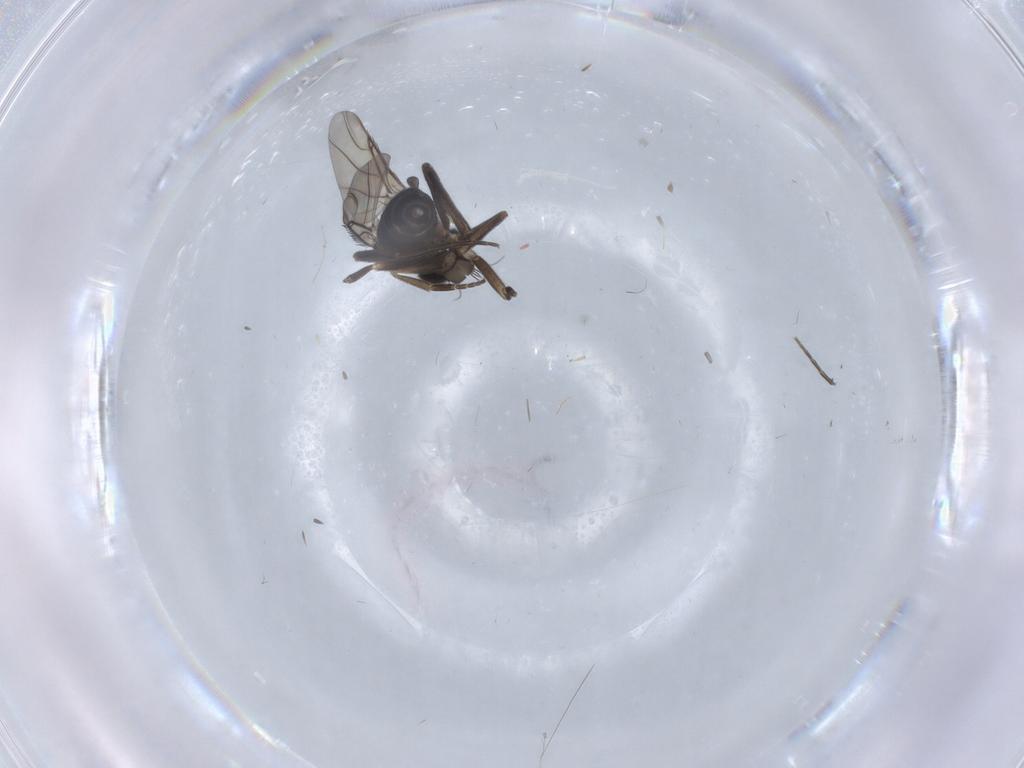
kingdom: Animalia
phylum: Arthropoda
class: Insecta
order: Diptera
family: Phoridae
